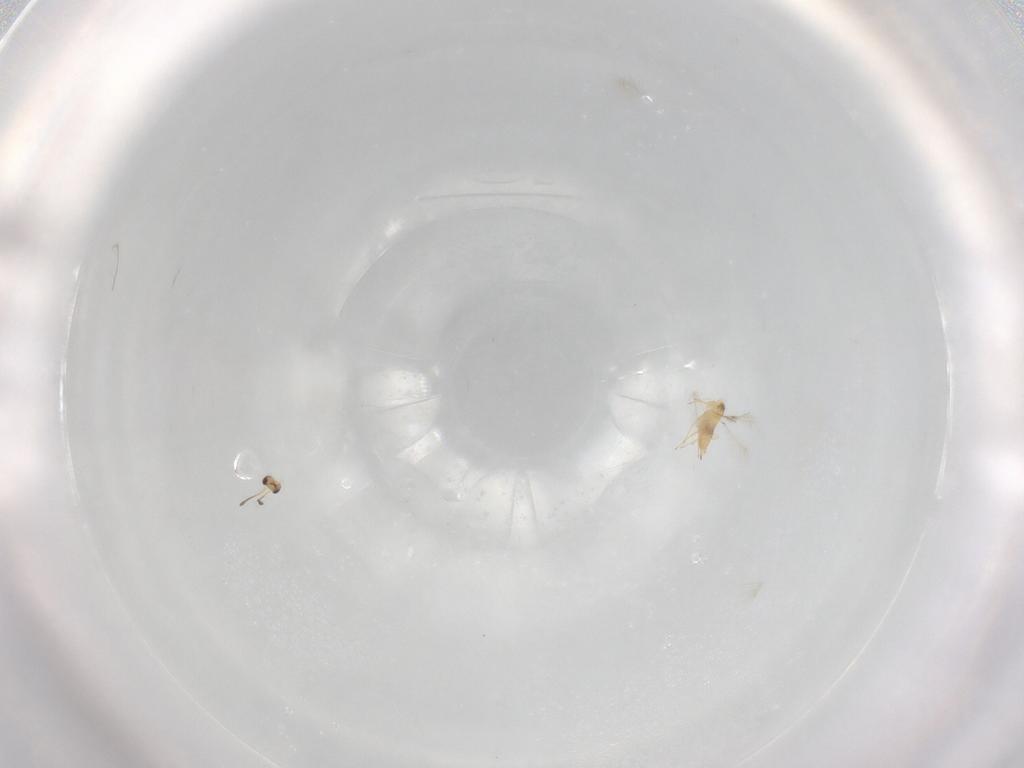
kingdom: Animalia
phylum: Arthropoda
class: Insecta
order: Hymenoptera
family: Mymaridae
